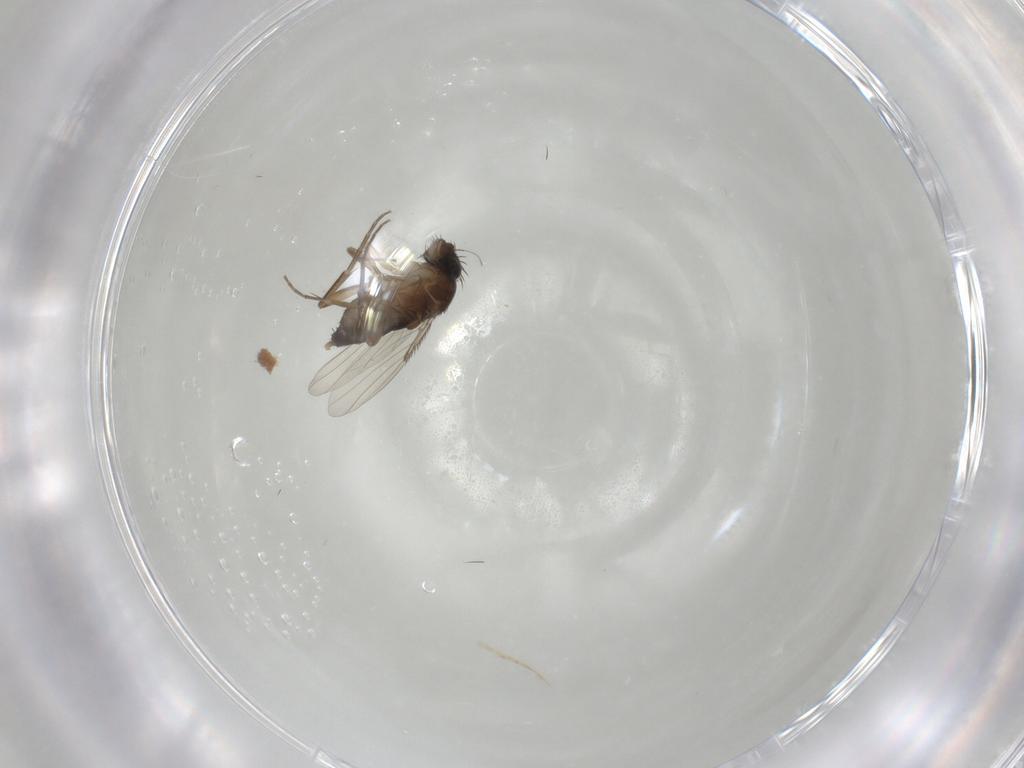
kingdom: Animalia
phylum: Arthropoda
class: Insecta
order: Diptera
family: Phoridae
